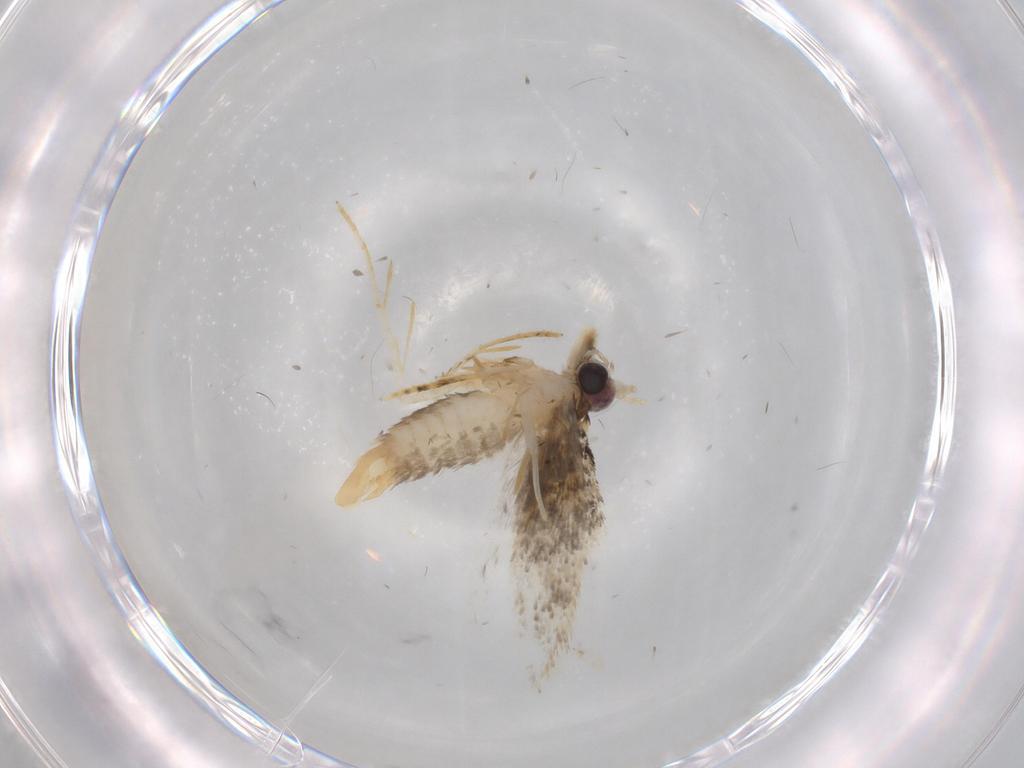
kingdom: Animalia
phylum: Arthropoda
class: Insecta
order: Lepidoptera
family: Nepticulidae
